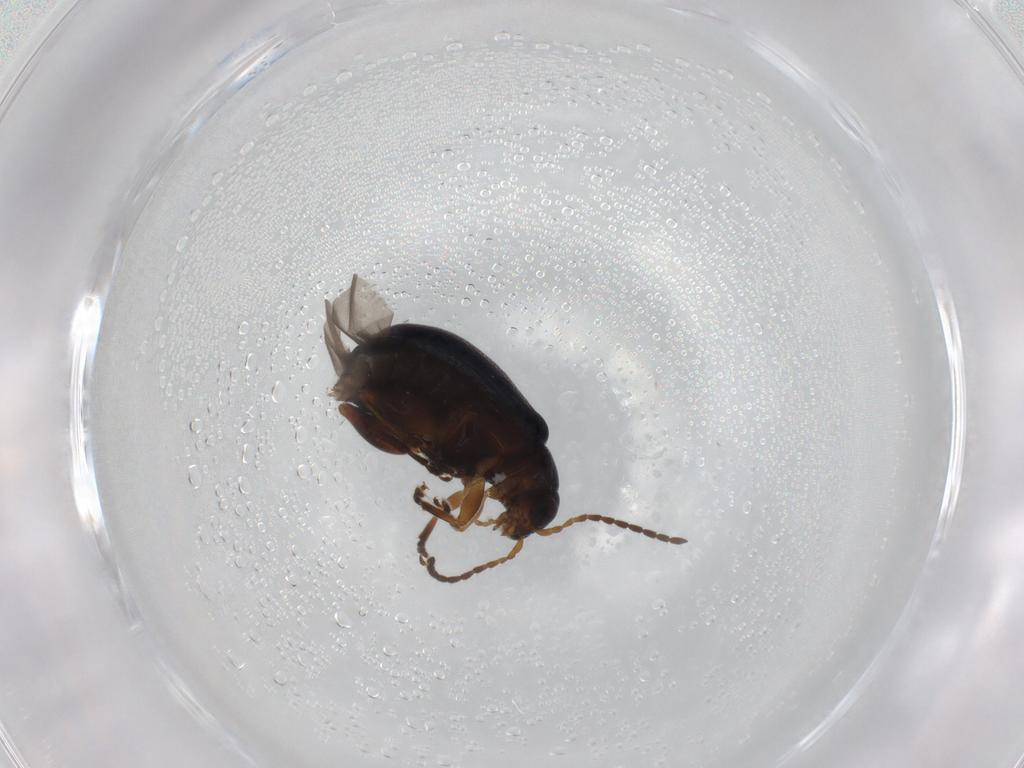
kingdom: Animalia
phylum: Arthropoda
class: Insecta
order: Coleoptera
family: Chrysomelidae
